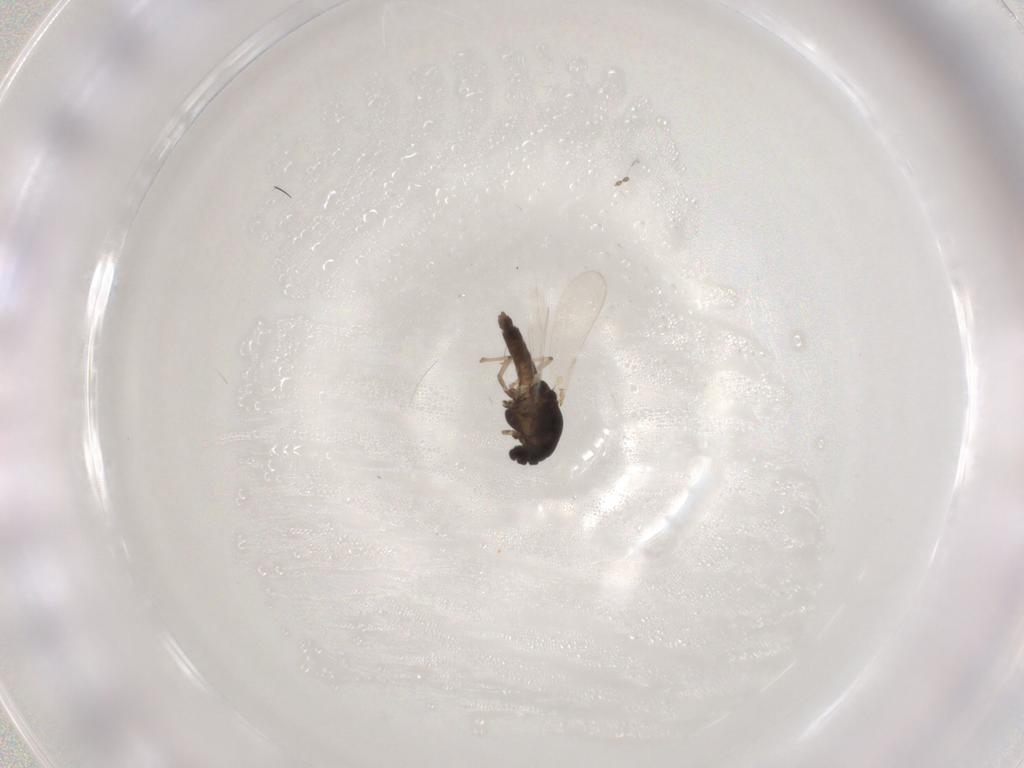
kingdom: Animalia
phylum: Arthropoda
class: Insecta
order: Diptera
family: Chironomidae
